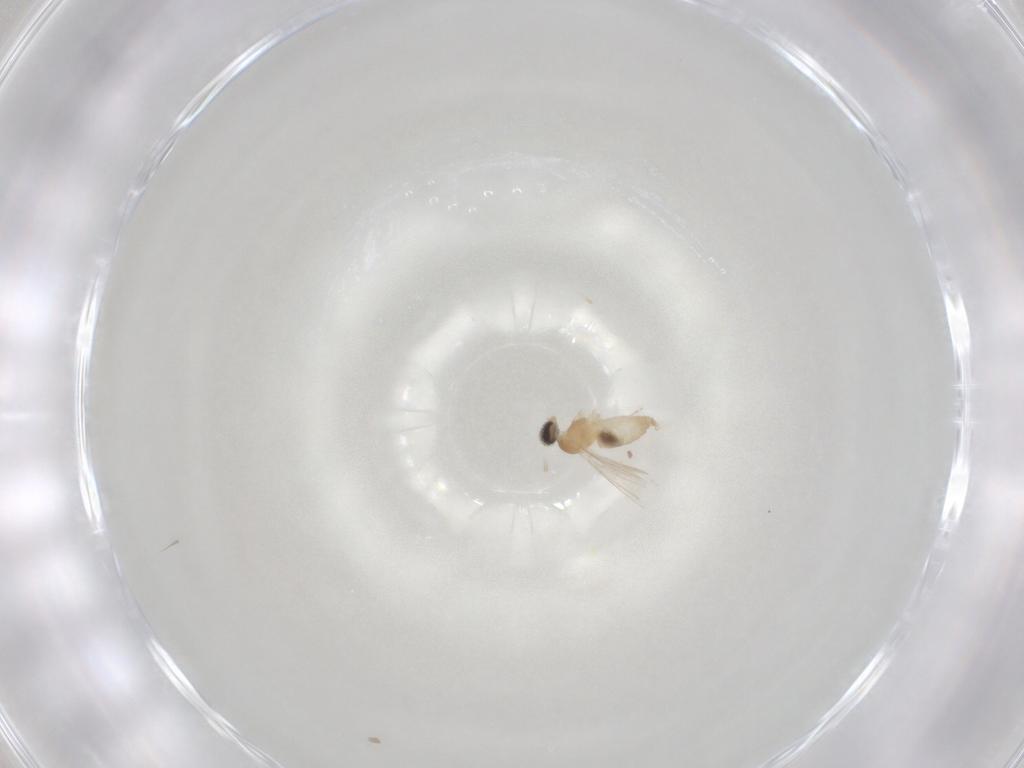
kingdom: Animalia
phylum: Arthropoda
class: Insecta
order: Diptera
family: Cecidomyiidae
